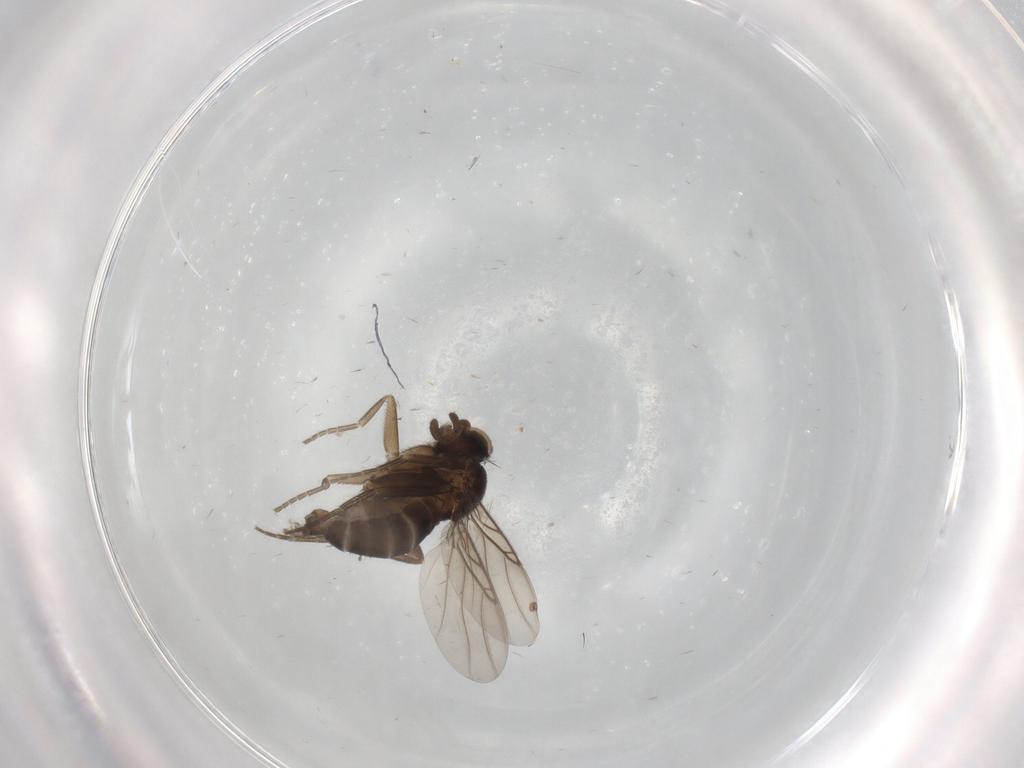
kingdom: Animalia
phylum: Arthropoda
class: Insecta
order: Diptera
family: Phoridae
